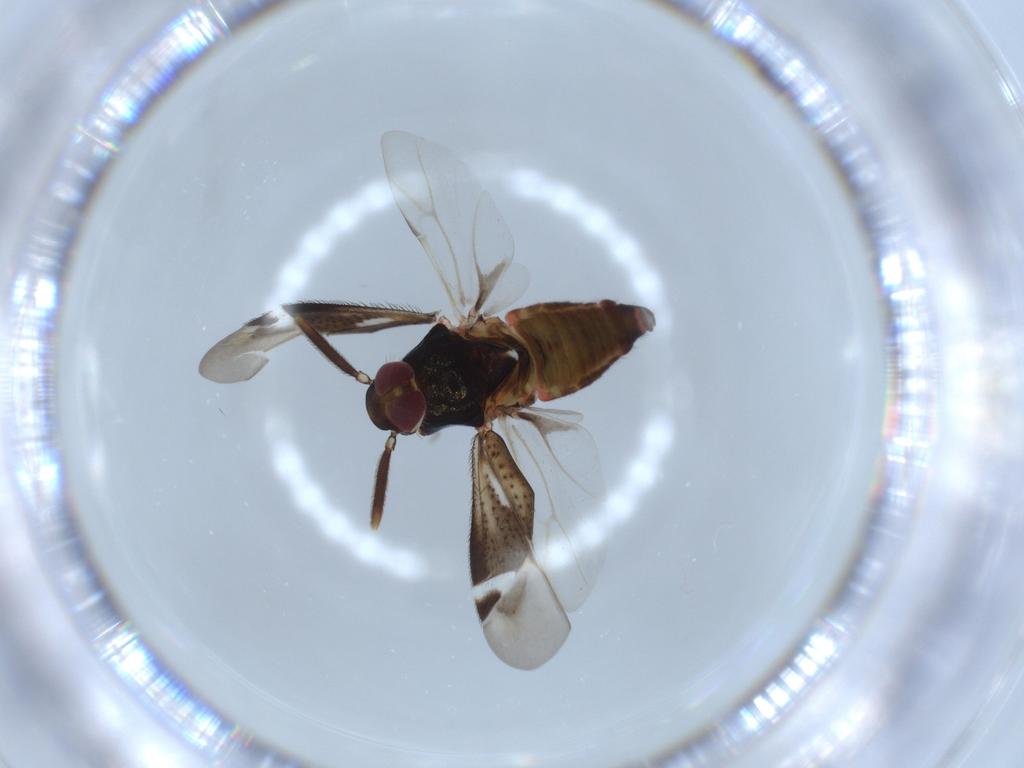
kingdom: Animalia
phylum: Arthropoda
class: Insecta
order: Hemiptera
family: Miridae
